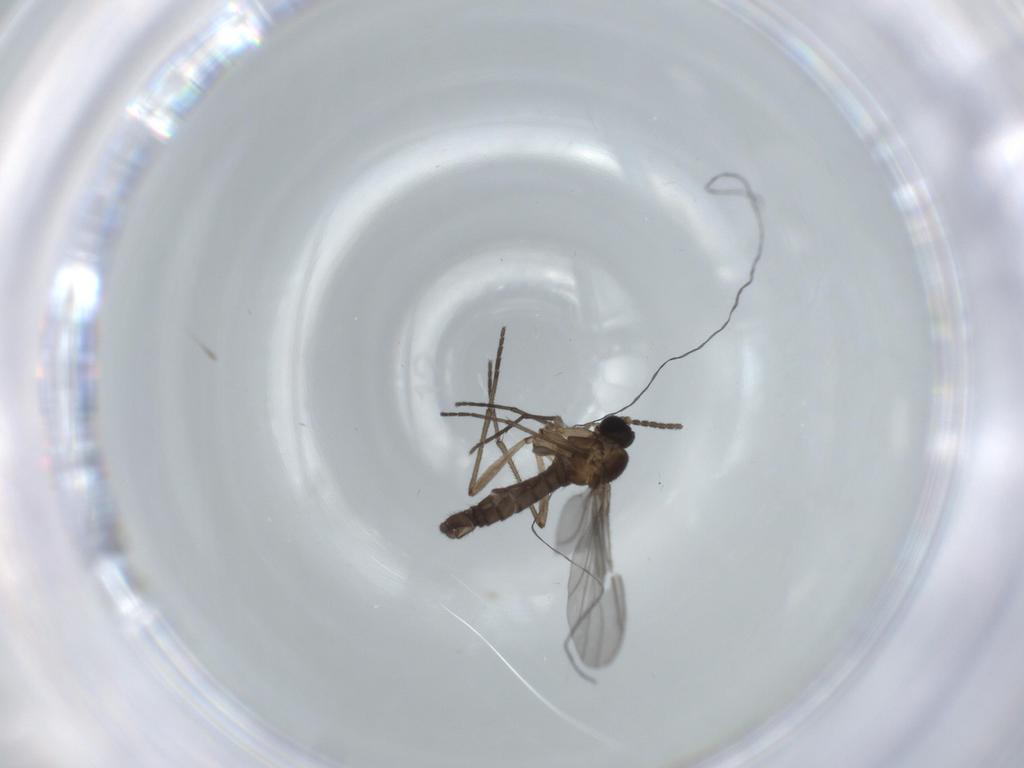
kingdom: Animalia
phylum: Arthropoda
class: Insecta
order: Diptera
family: Sciaridae
